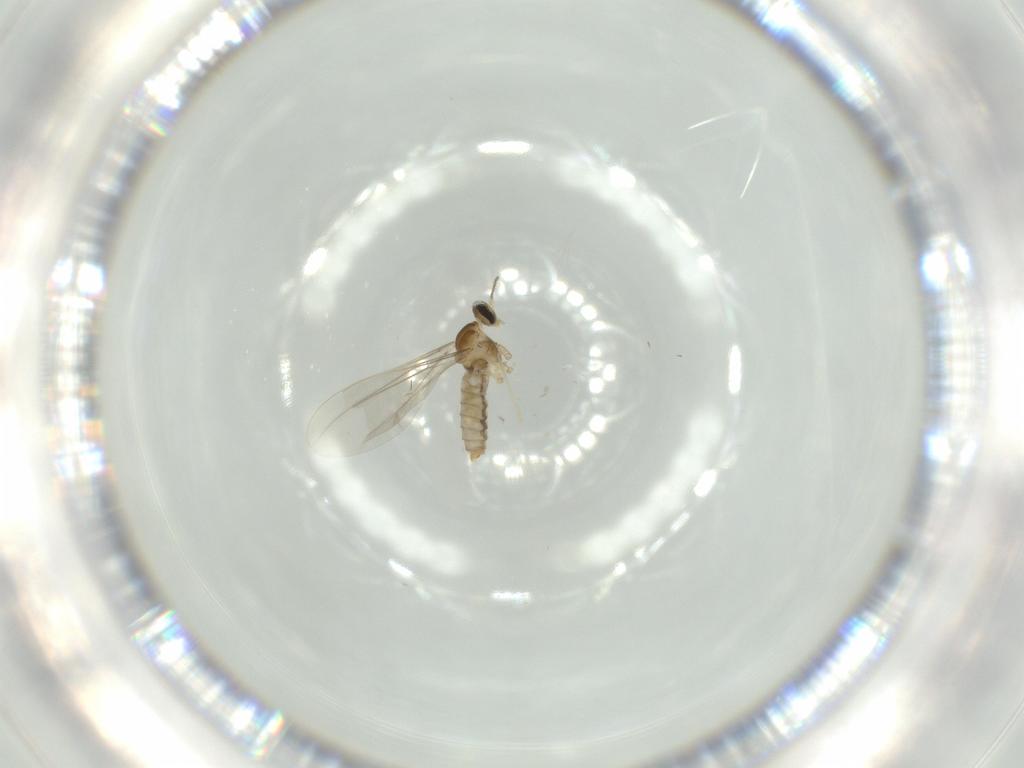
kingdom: Animalia
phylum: Arthropoda
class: Insecta
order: Diptera
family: Cecidomyiidae
